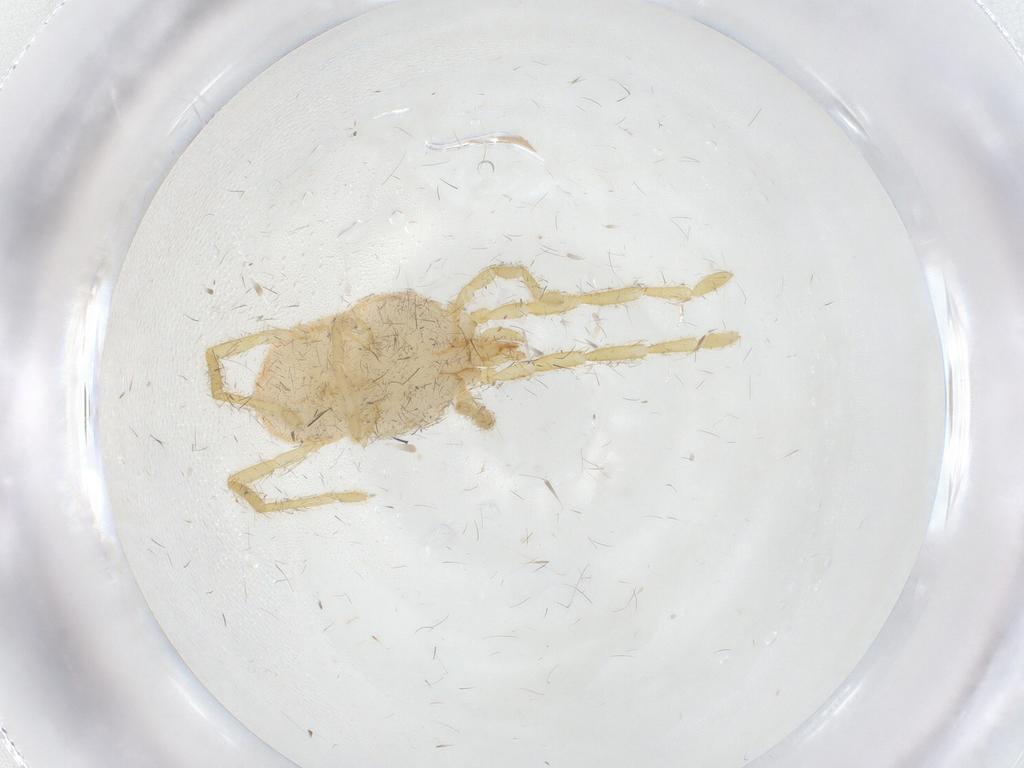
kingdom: Animalia
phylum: Arthropoda
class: Arachnida
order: Trombidiformes
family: Erythraeidae
